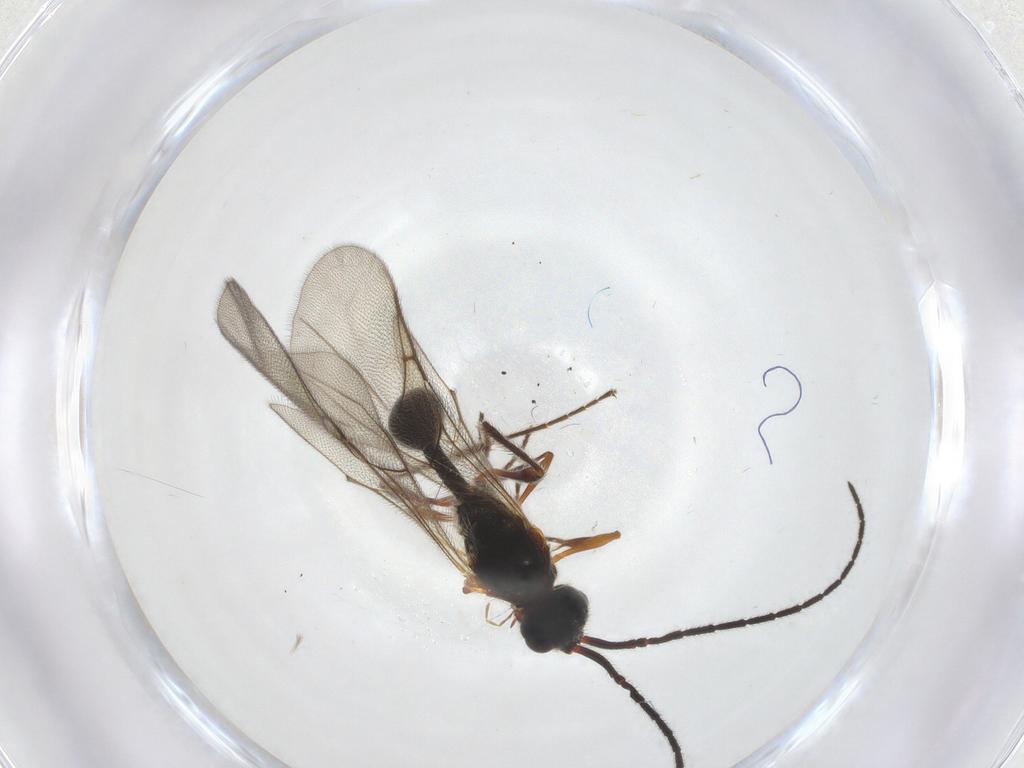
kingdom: Animalia
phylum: Arthropoda
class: Insecta
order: Hymenoptera
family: Diapriidae
